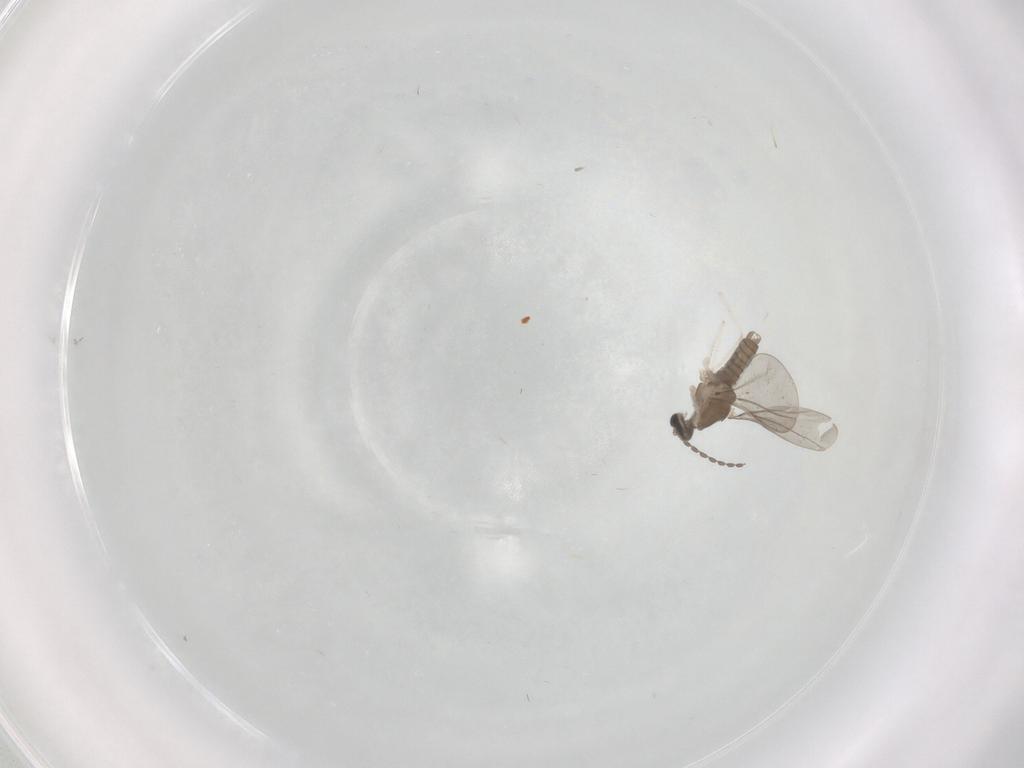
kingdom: Animalia
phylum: Arthropoda
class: Insecta
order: Diptera
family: Cecidomyiidae
